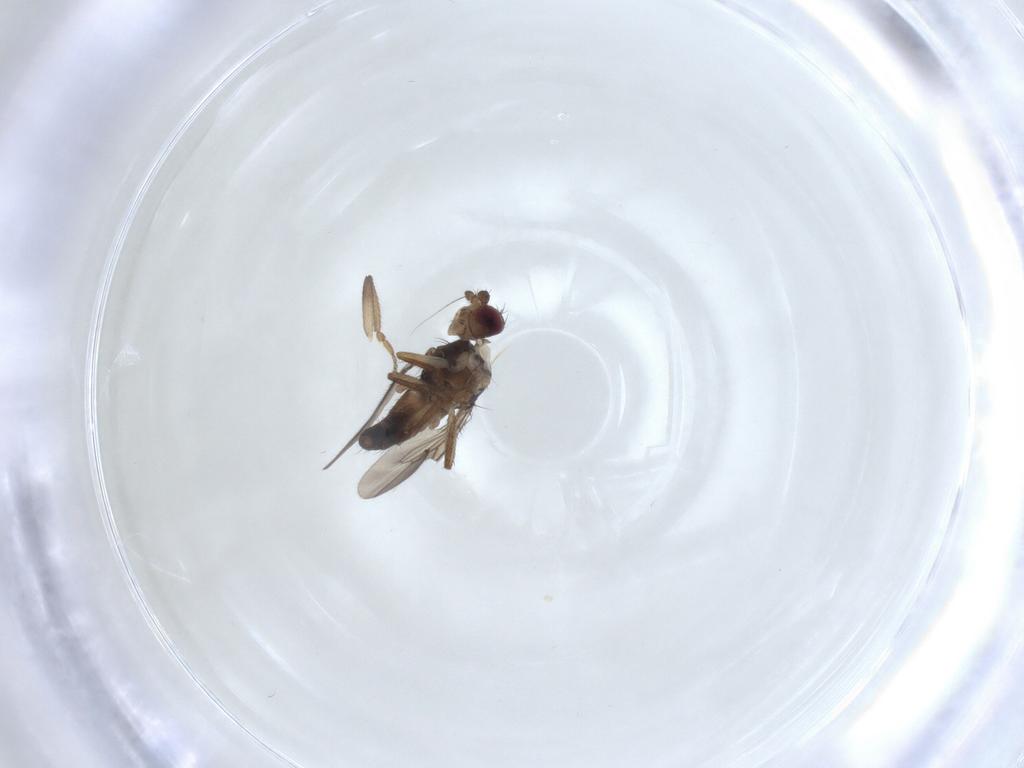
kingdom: Animalia
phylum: Arthropoda
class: Insecta
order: Diptera
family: Sphaeroceridae
